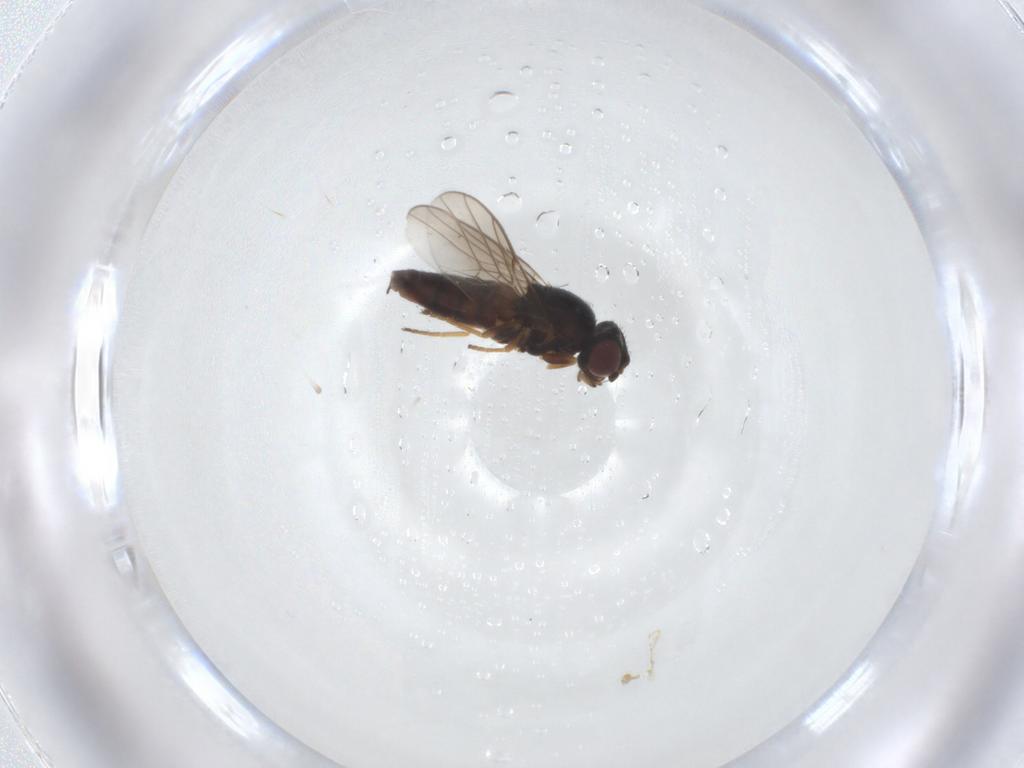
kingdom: Animalia
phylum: Arthropoda
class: Insecta
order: Diptera
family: Chloropidae
